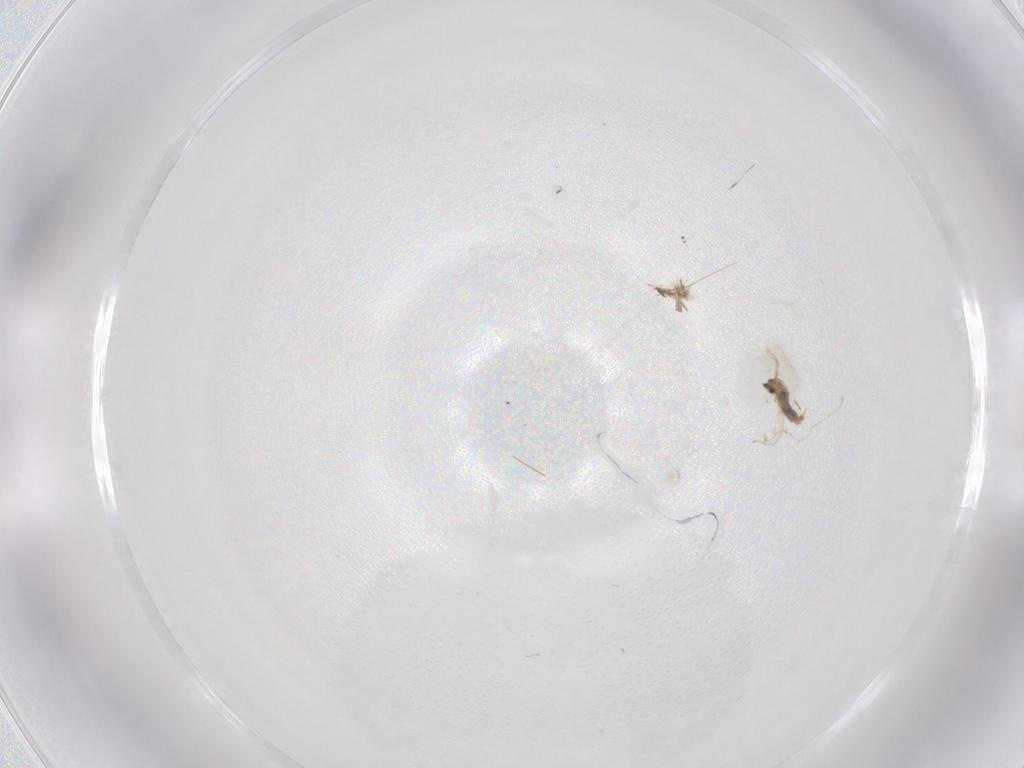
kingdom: Animalia
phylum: Arthropoda
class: Insecta
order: Diptera
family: Cecidomyiidae
